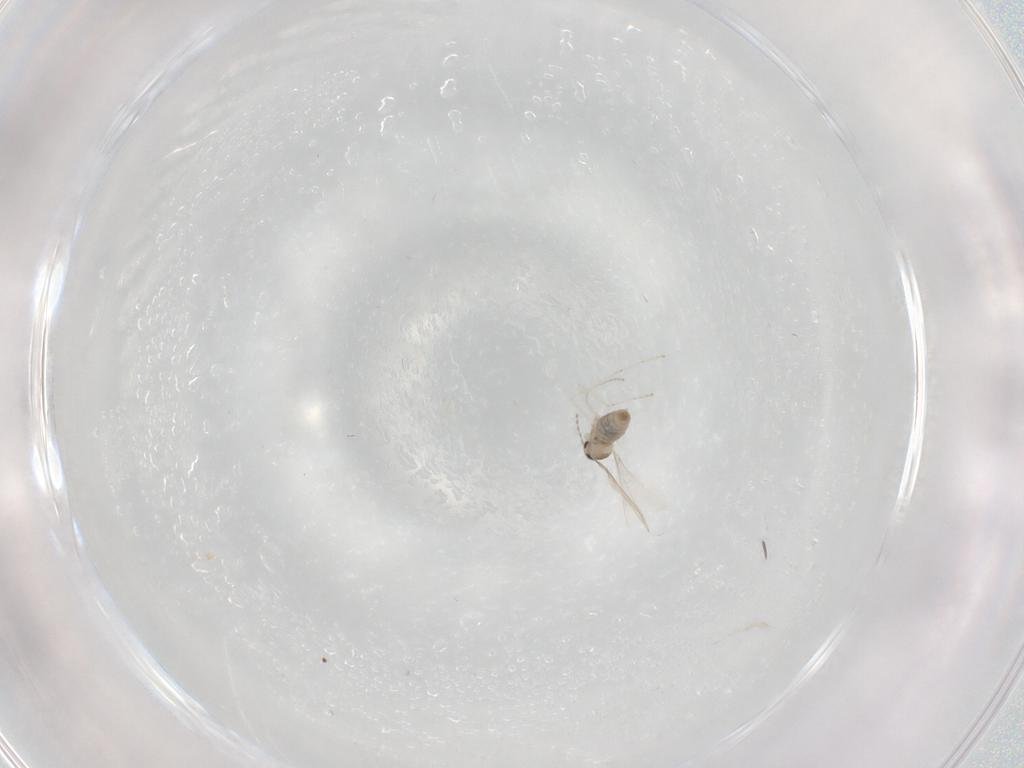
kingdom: Animalia
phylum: Arthropoda
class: Insecta
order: Diptera
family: Cecidomyiidae
